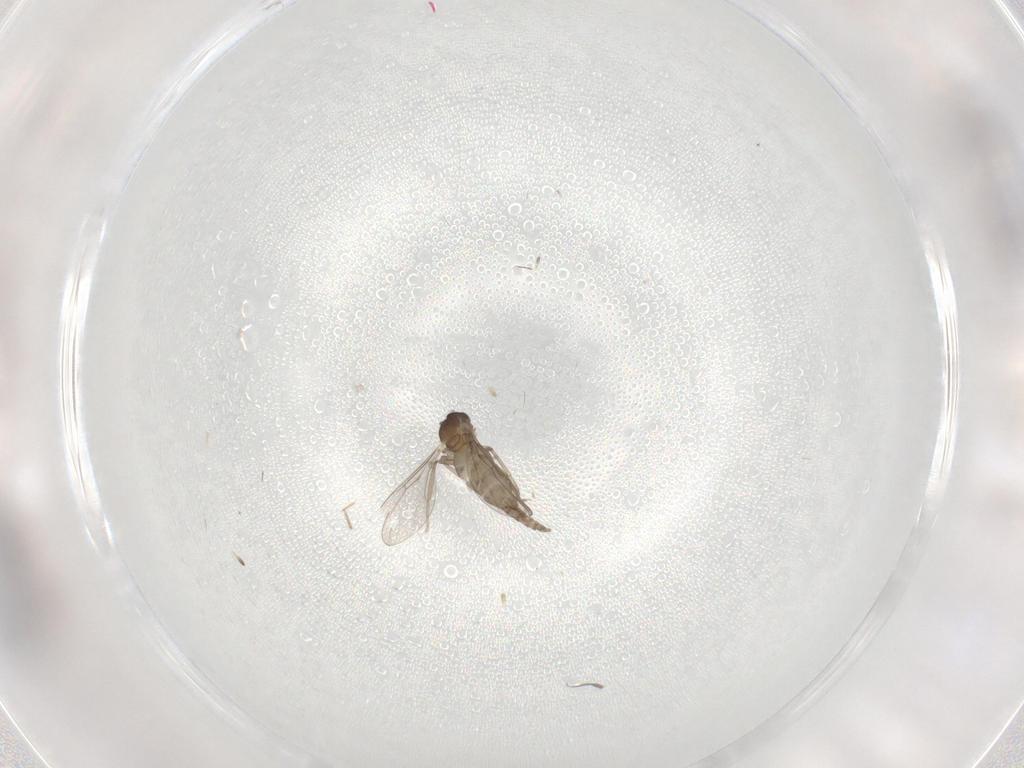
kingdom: Animalia
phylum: Arthropoda
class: Insecta
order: Diptera
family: Cecidomyiidae
